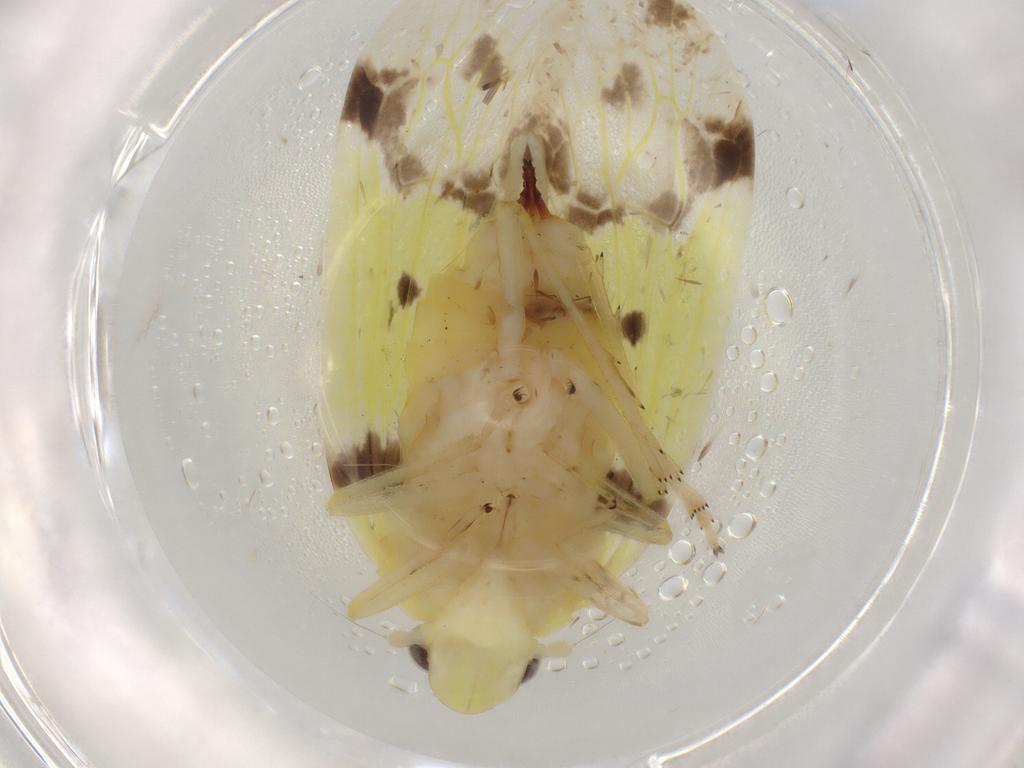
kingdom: Animalia
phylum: Arthropoda
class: Insecta
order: Hemiptera
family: Tropiduchidae
